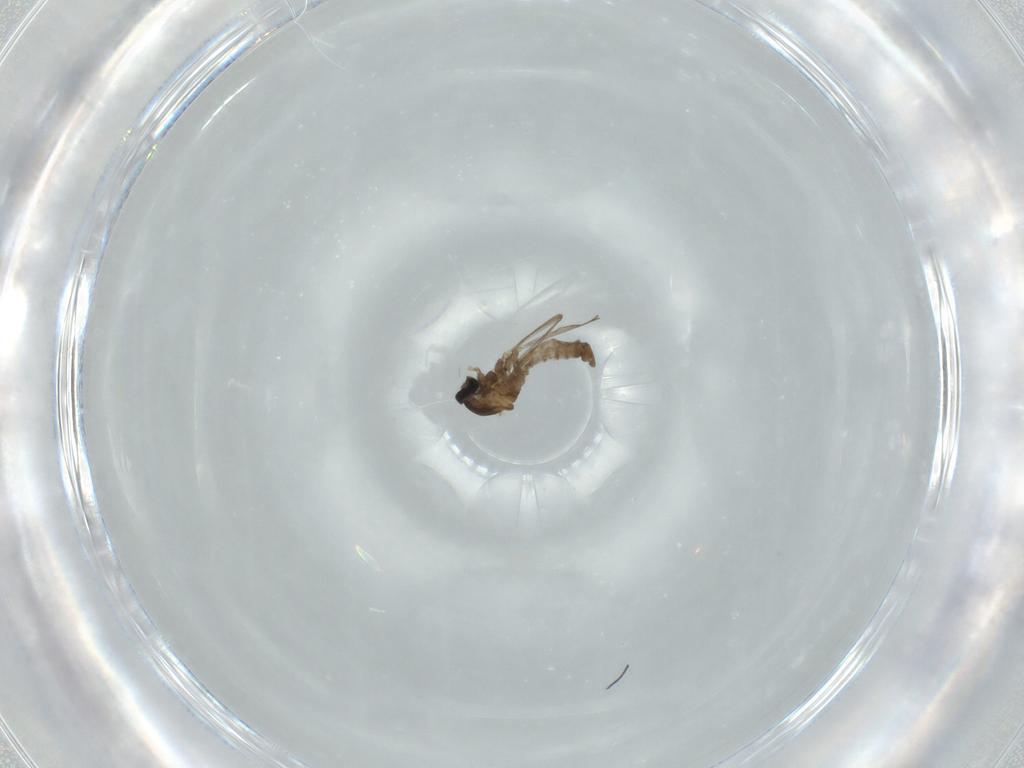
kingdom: Animalia
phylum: Arthropoda
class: Insecta
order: Diptera
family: Cecidomyiidae
